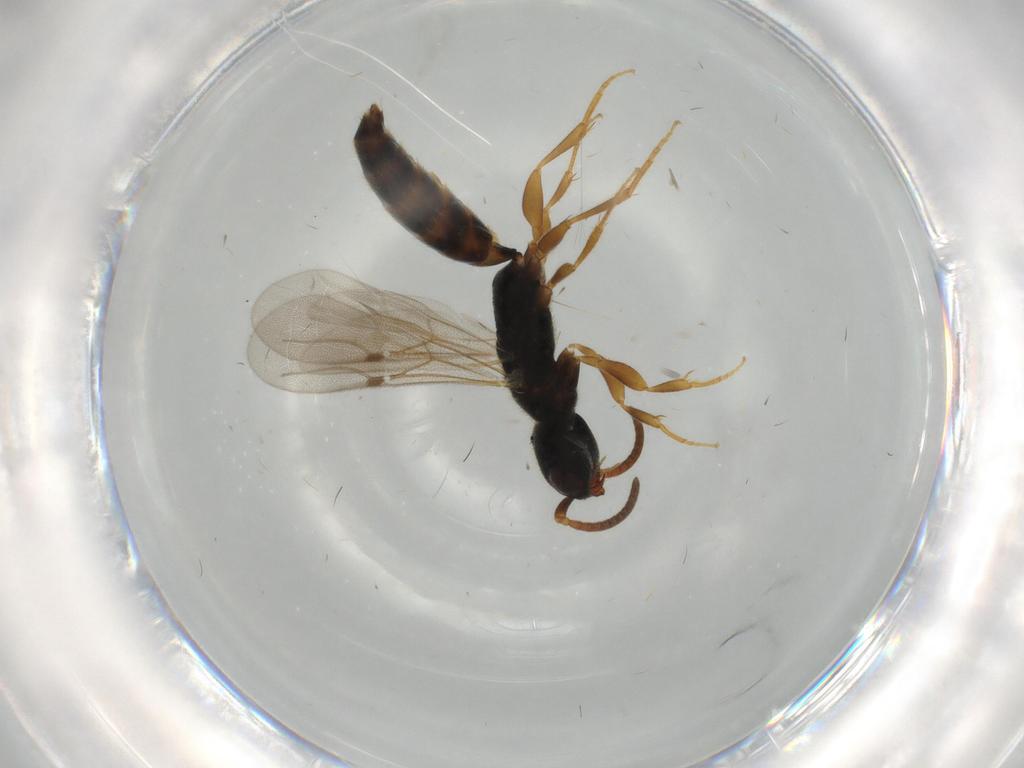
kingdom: Animalia
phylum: Arthropoda
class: Insecta
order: Hymenoptera
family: Bethylidae
